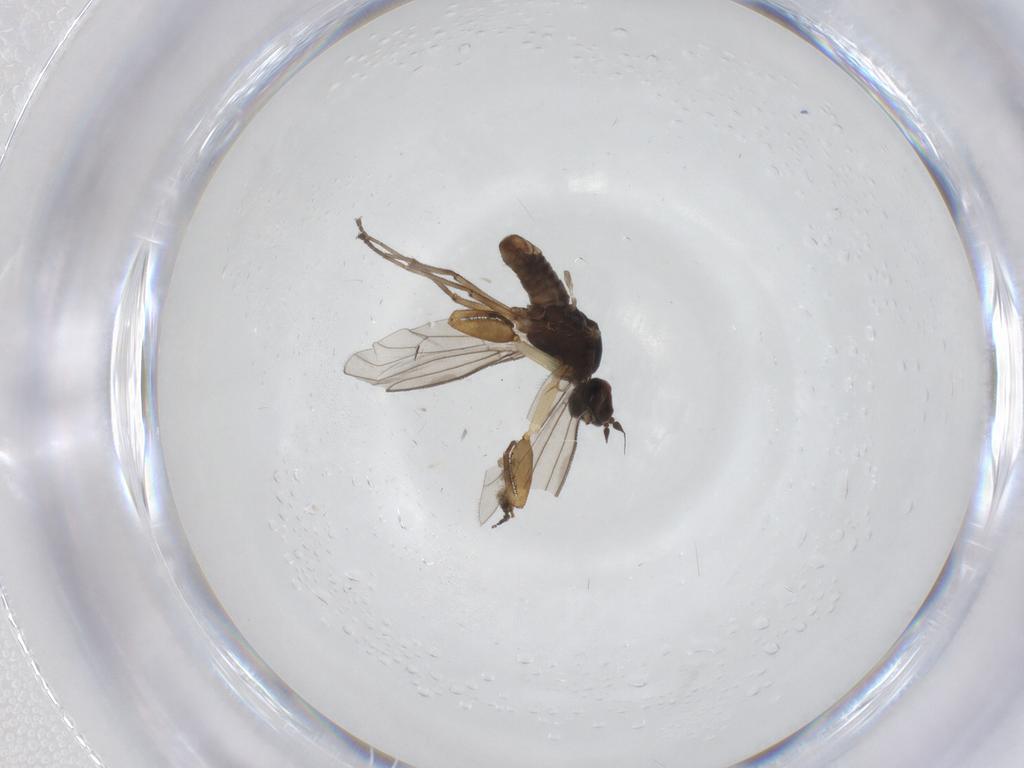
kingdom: Animalia
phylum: Arthropoda
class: Insecta
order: Diptera
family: Empididae
